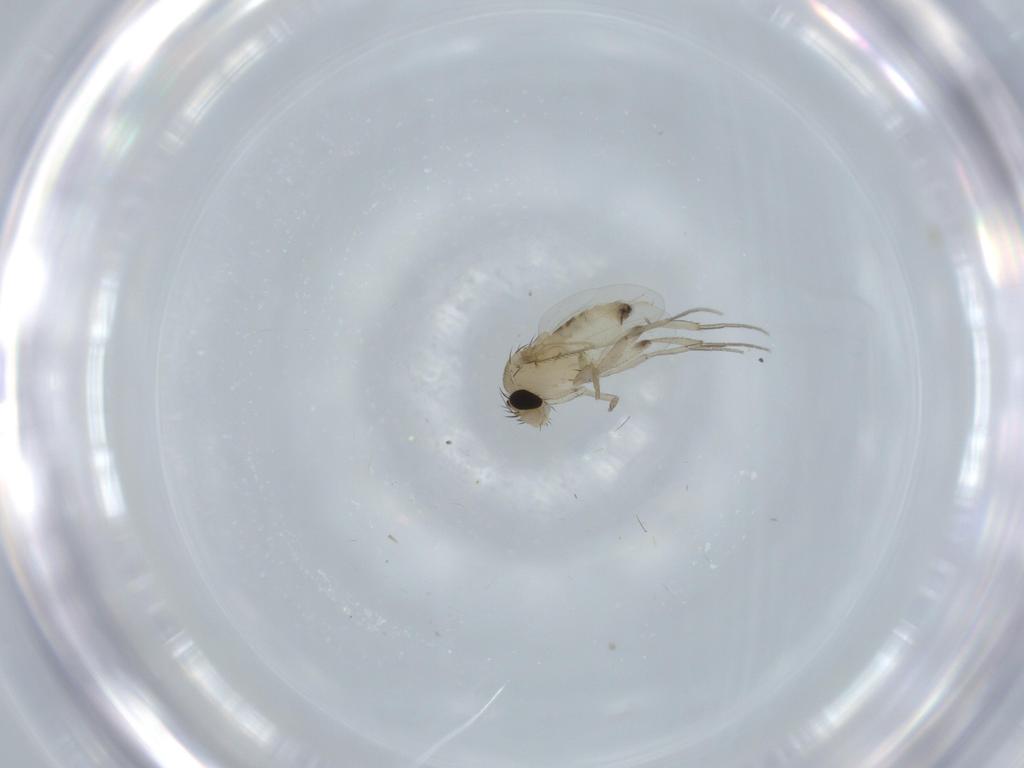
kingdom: Animalia
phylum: Arthropoda
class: Insecta
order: Diptera
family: Phoridae
